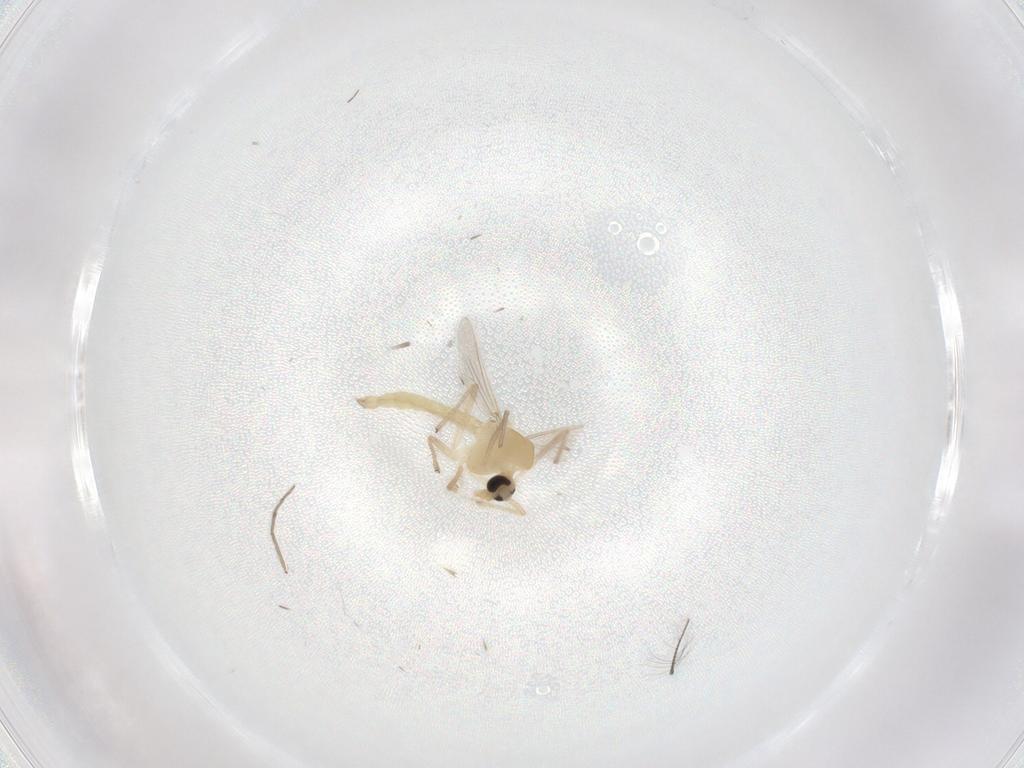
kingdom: Animalia
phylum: Arthropoda
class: Insecta
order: Diptera
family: Chironomidae
